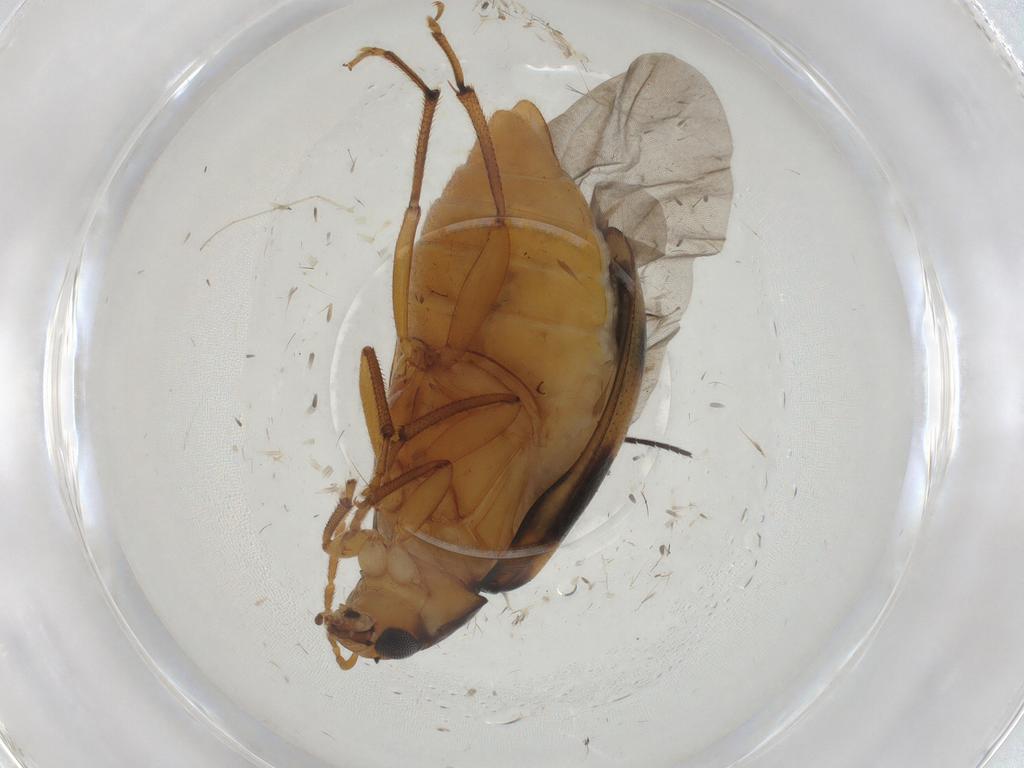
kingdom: Animalia
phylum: Arthropoda
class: Insecta
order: Coleoptera
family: Chrysomelidae
